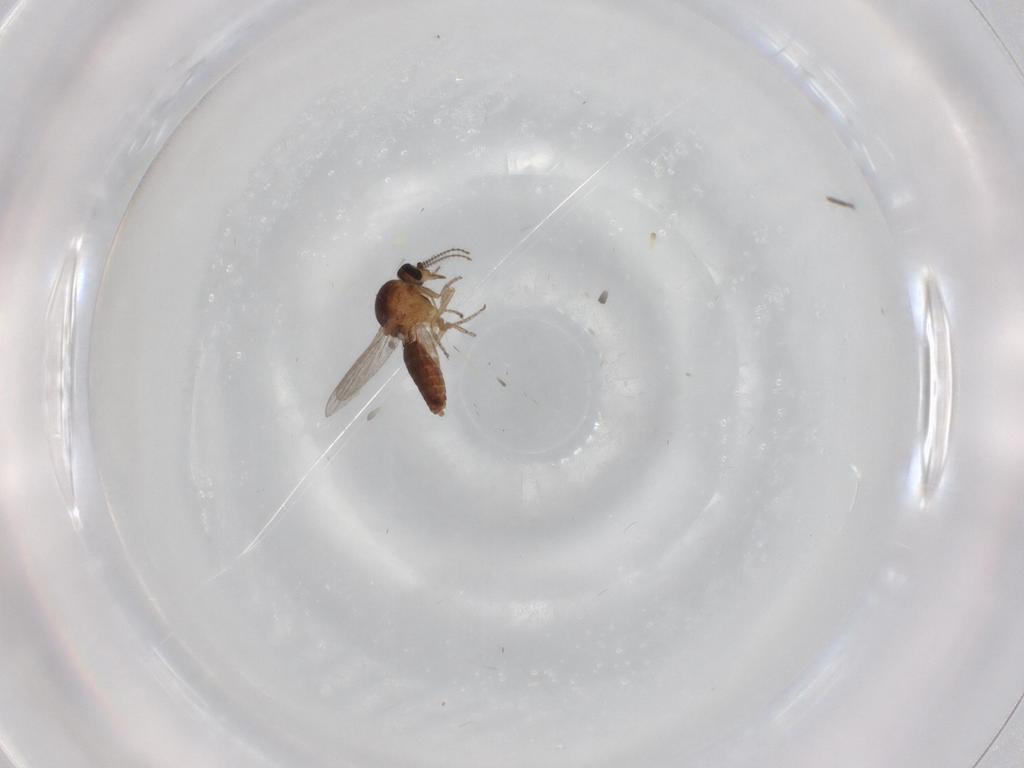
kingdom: Animalia
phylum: Arthropoda
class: Insecta
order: Diptera
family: Ceratopogonidae
